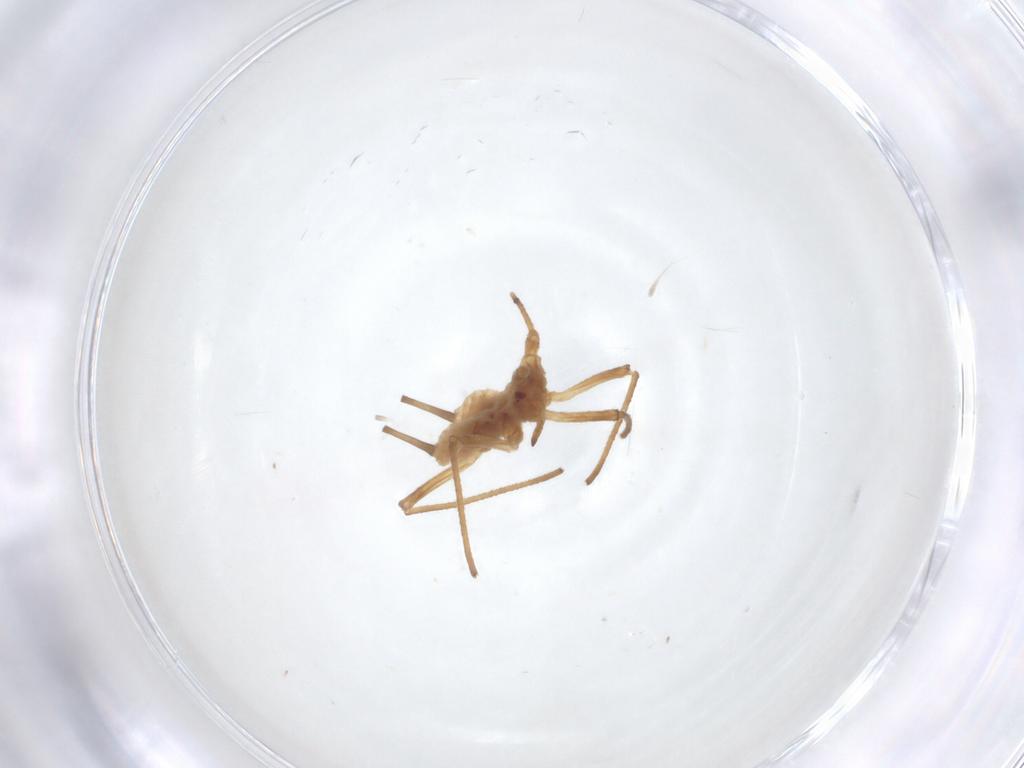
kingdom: Animalia
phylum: Arthropoda
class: Insecta
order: Hemiptera
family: Aphididae
